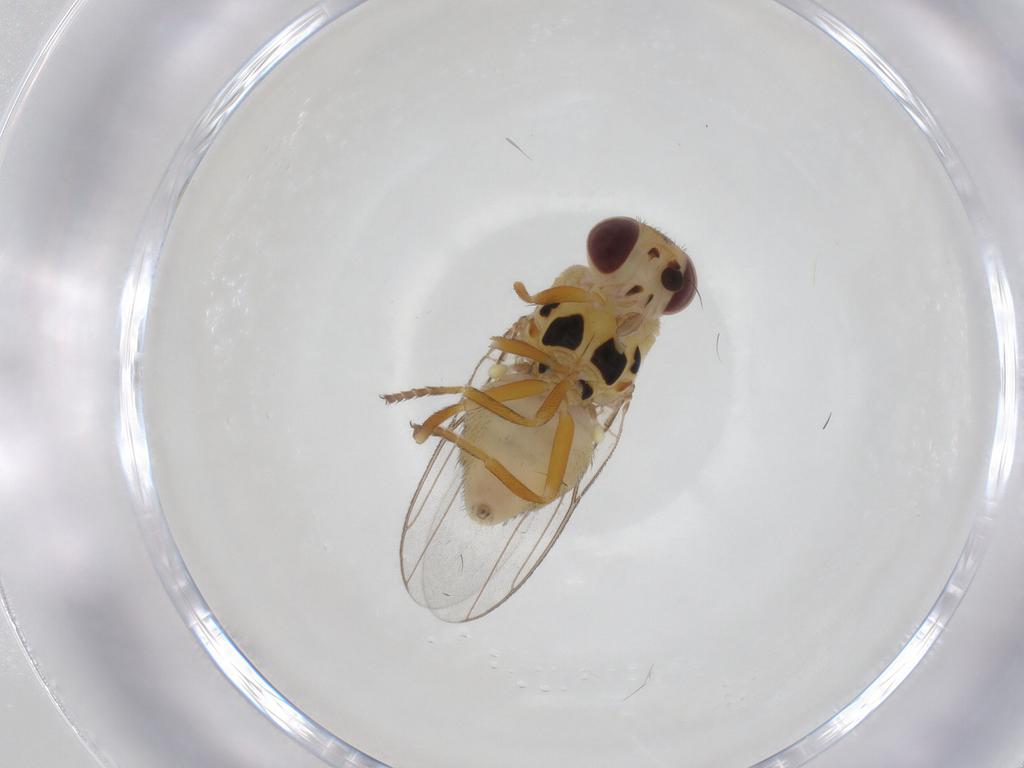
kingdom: Animalia
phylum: Arthropoda
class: Insecta
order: Diptera
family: Chloropidae
